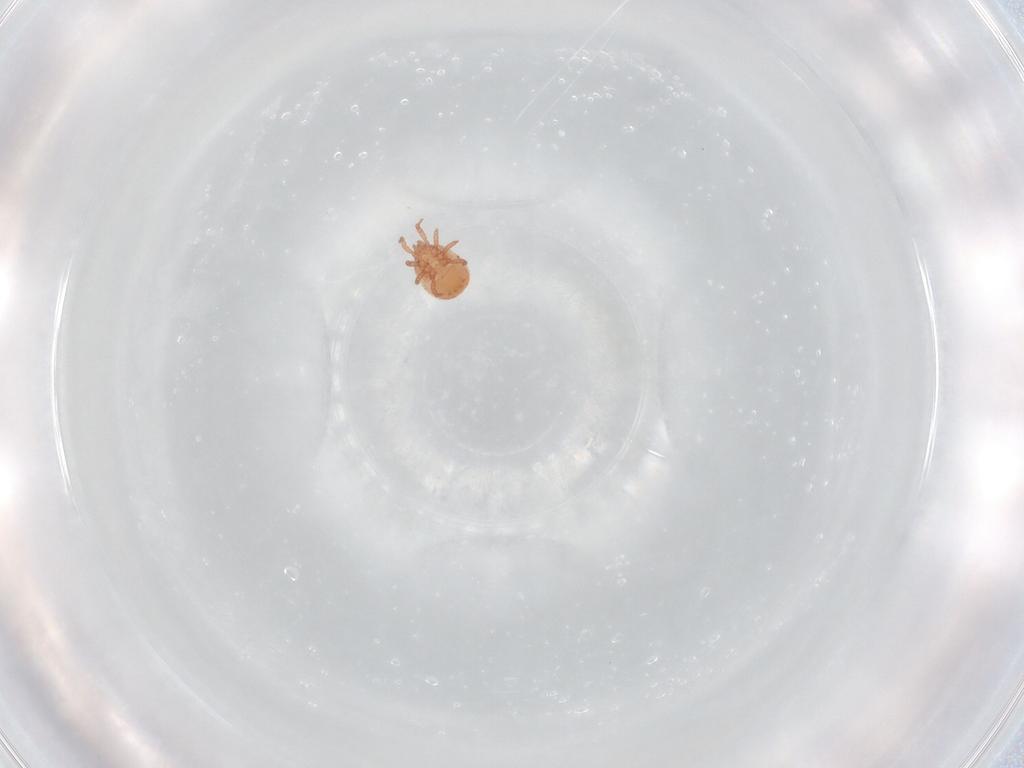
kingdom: Animalia
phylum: Arthropoda
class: Arachnida
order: Mesostigmata
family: Zerconidae
